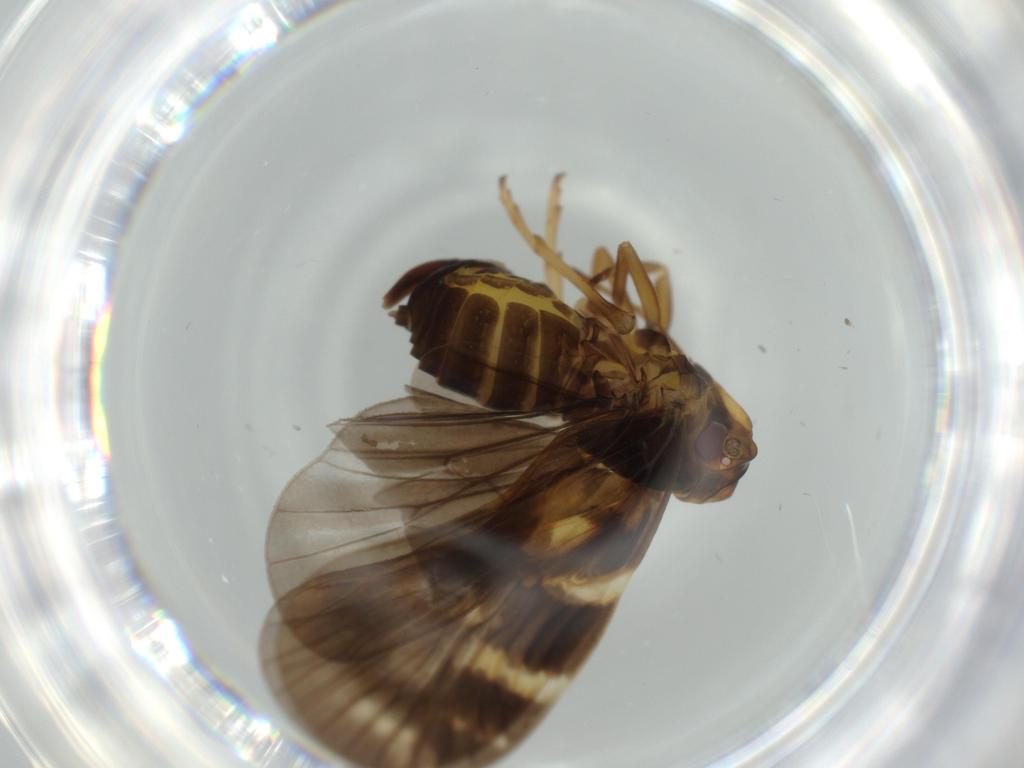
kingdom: Animalia
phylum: Arthropoda
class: Insecta
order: Hemiptera
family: Cixiidae
